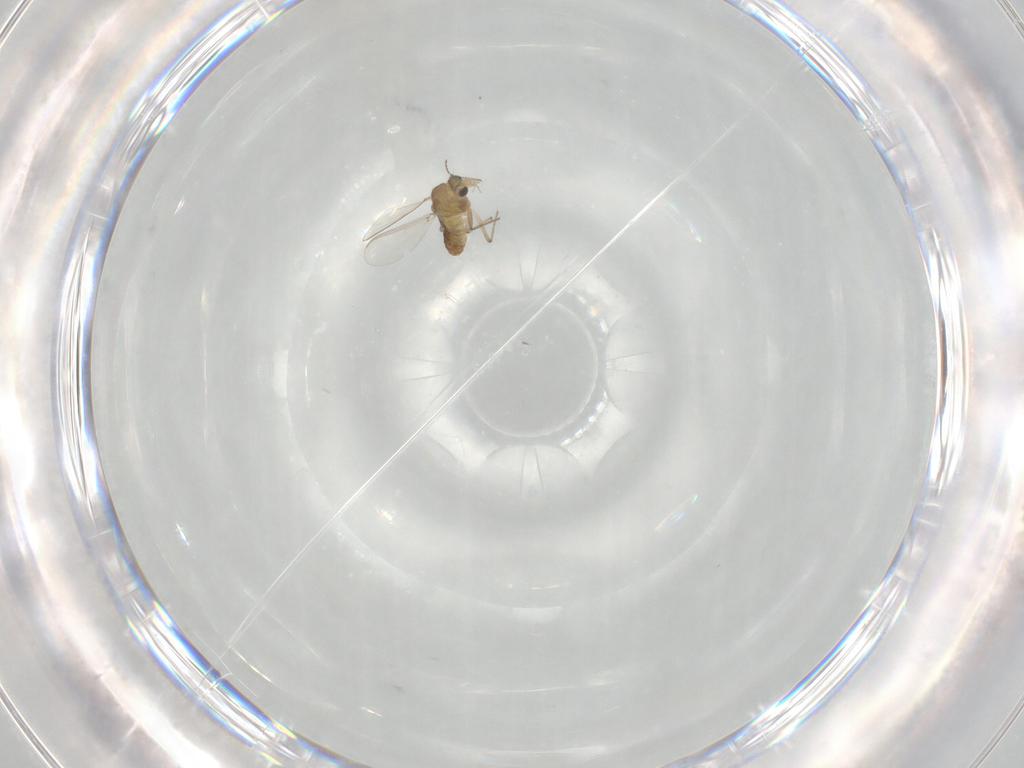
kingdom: Animalia
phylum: Arthropoda
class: Insecta
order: Diptera
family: Chironomidae
